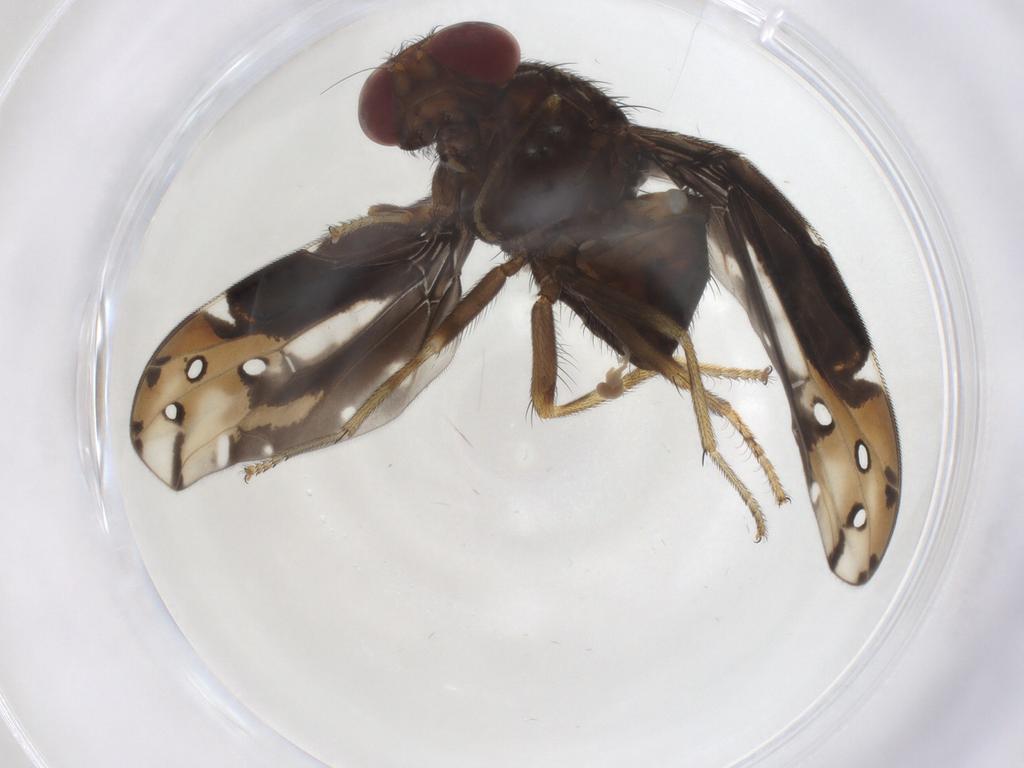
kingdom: Animalia
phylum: Arthropoda
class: Insecta
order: Diptera
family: Ulidiidae
